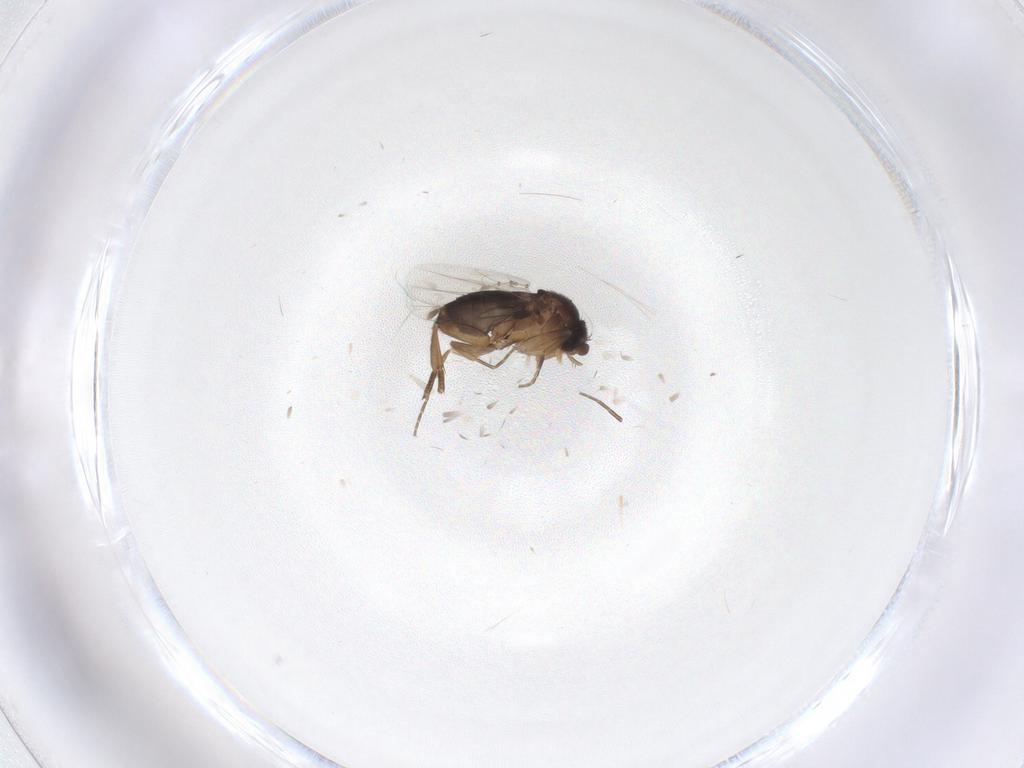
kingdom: Animalia
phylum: Arthropoda
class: Insecta
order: Diptera
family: Phoridae
